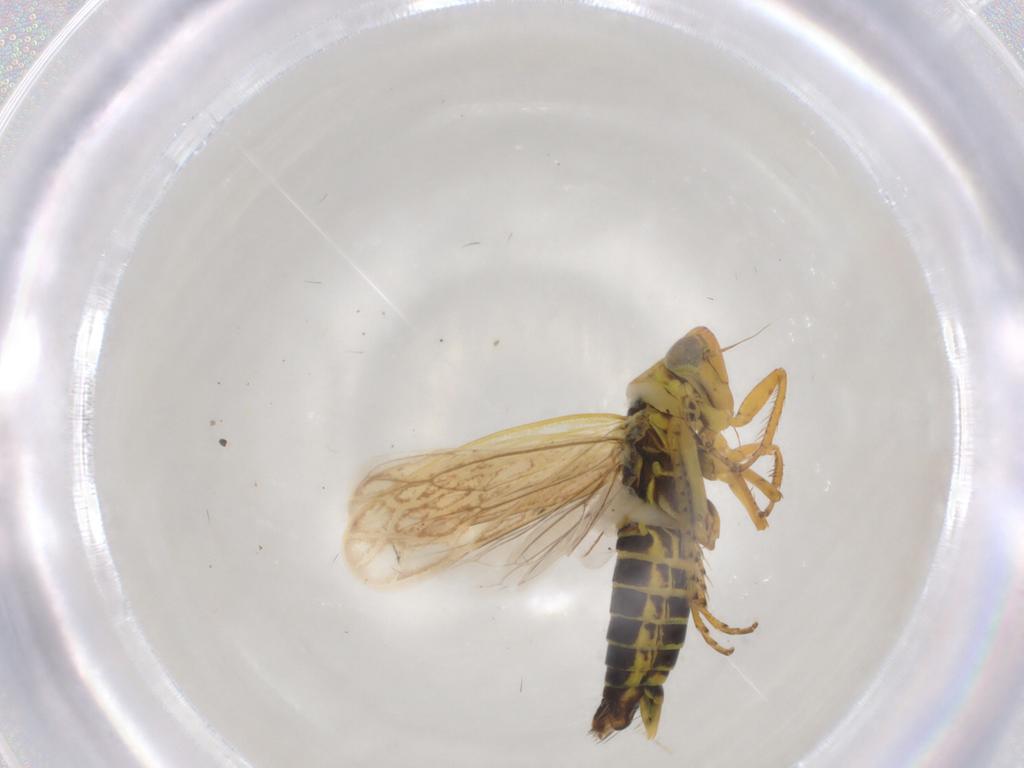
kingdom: Animalia
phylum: Arthropoda
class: Insecta
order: Hemiptera
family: Cicadellidae
